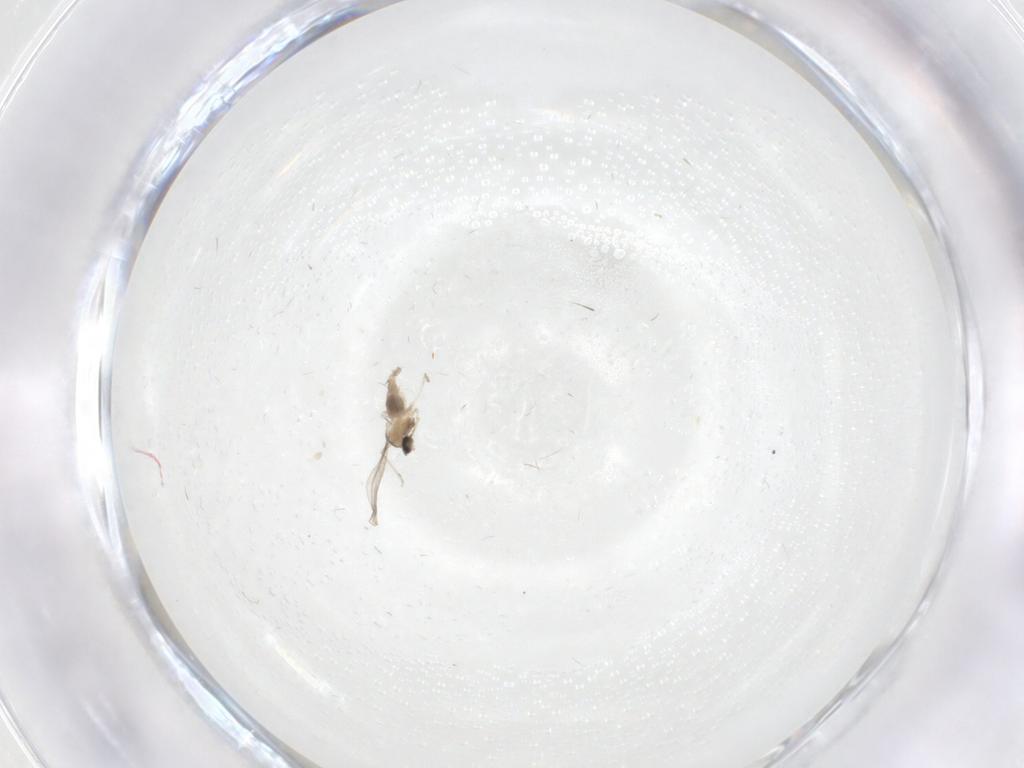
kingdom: Animalia
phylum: Arthropoda
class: Insecta
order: Diptera
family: Cecidomyiidae
